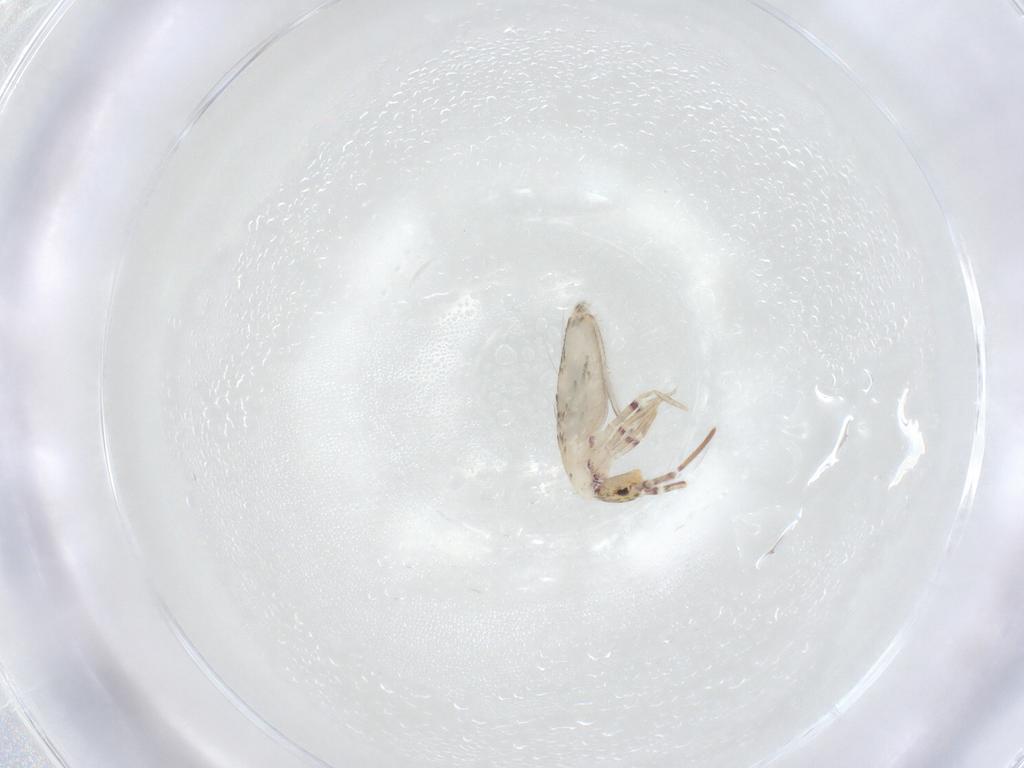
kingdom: Animalia
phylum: Arthropoda
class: Collembola
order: Entomobryomorpha
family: Entomobryidae
